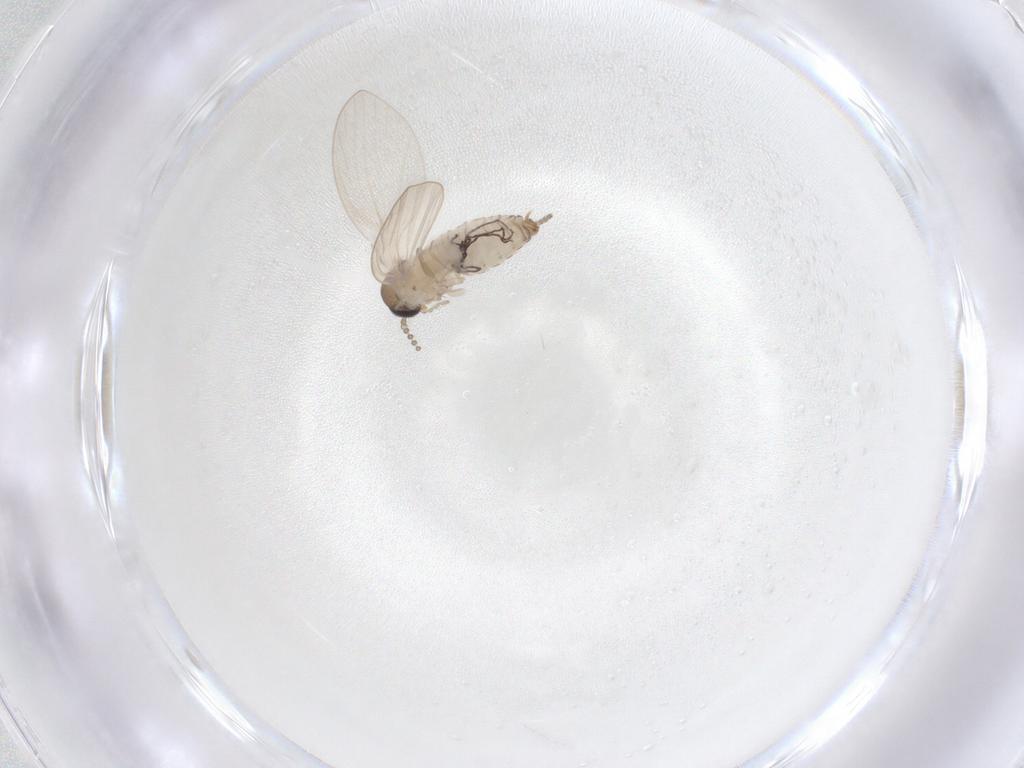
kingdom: Animalia
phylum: Arthropoda
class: Insecta
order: Diptera
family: Psychodidae
